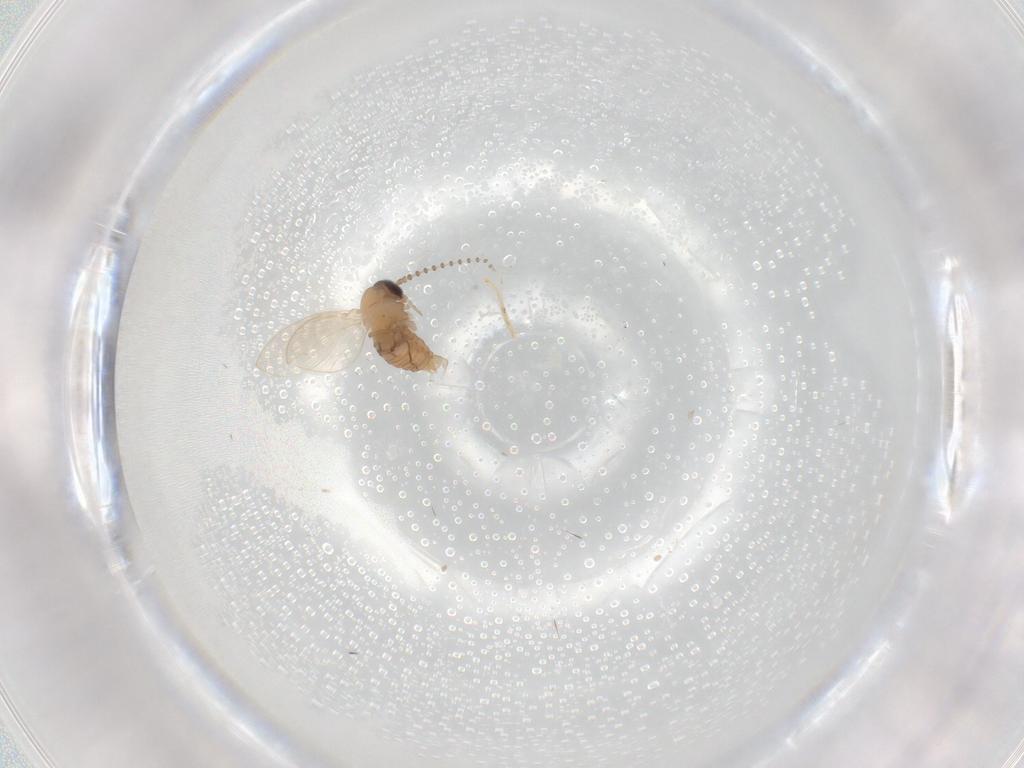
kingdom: Animalia
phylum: Arthropoda
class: Insecta
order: Diptera
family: Psychodidae
